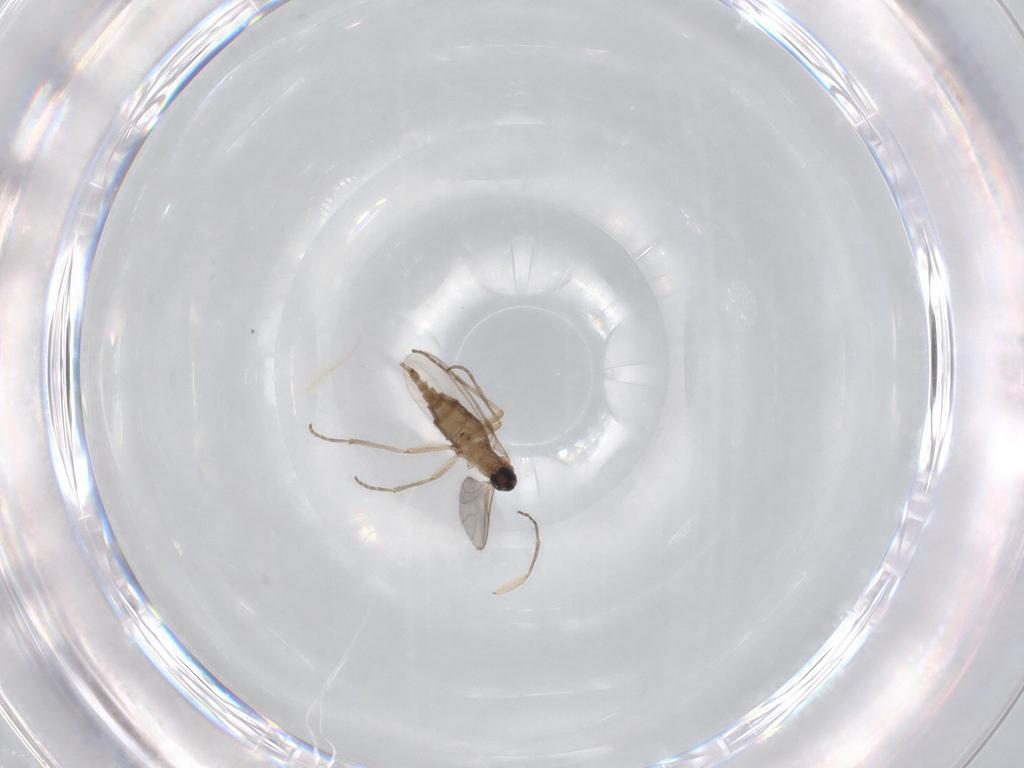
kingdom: Animalia
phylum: Arthropoda
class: Insecta
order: Diptera
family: Sciaridae
